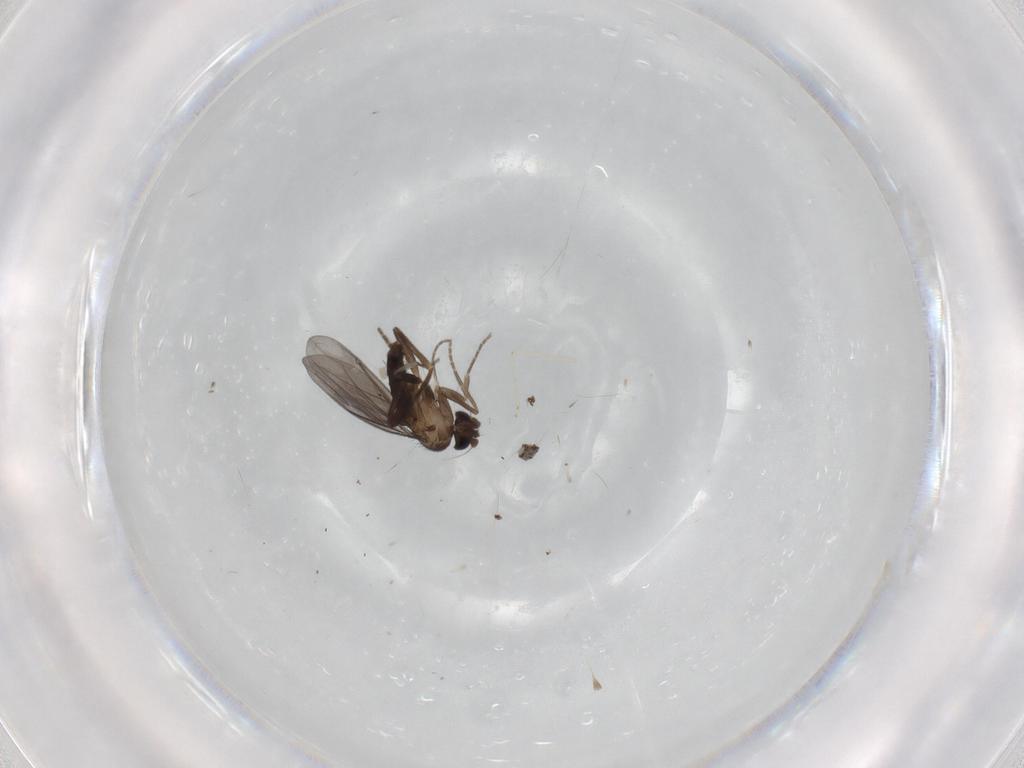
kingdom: Animalia
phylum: Arthropoda
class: Insecta
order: Diptera
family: Phoridae
